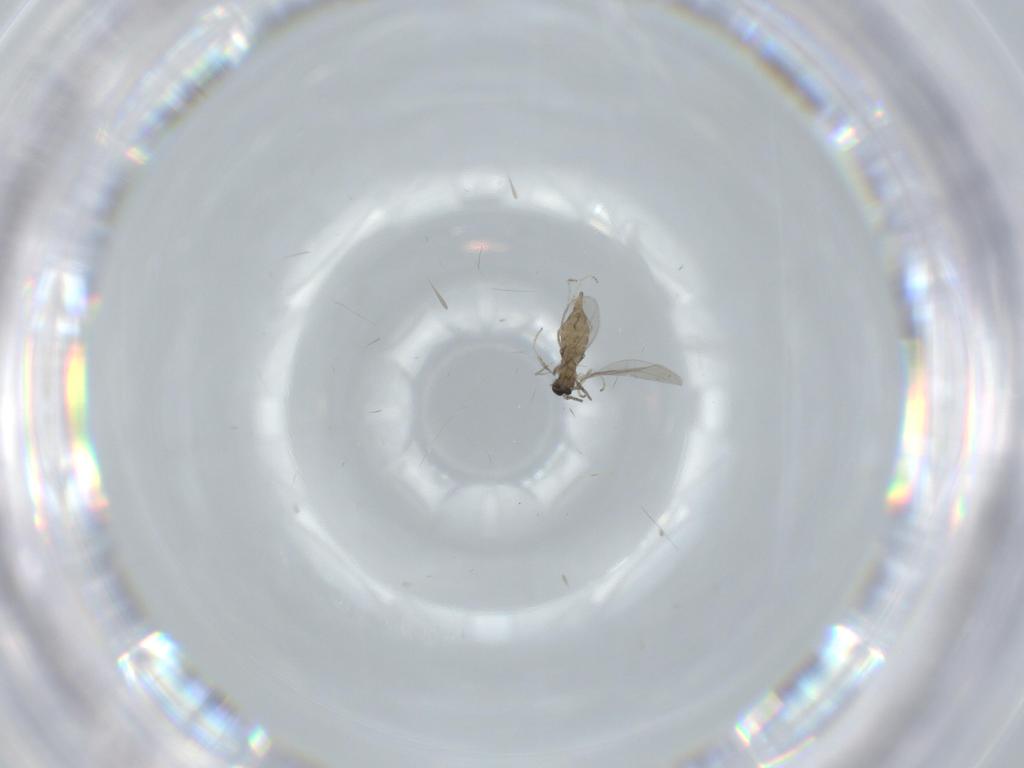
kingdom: Animalia
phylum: Arthropoda
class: Insecta
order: Diptera
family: Cecidomyiidae
